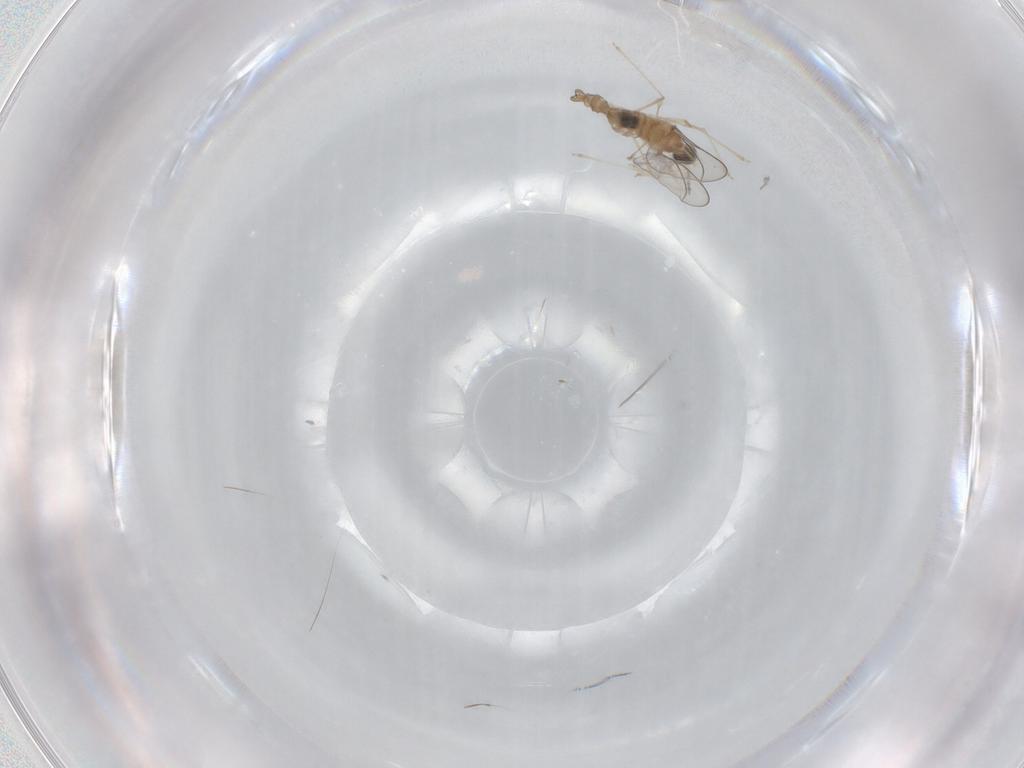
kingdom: Animalia
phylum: Arthropoda
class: Insecta
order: Diptera
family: Cecidomyiidae
